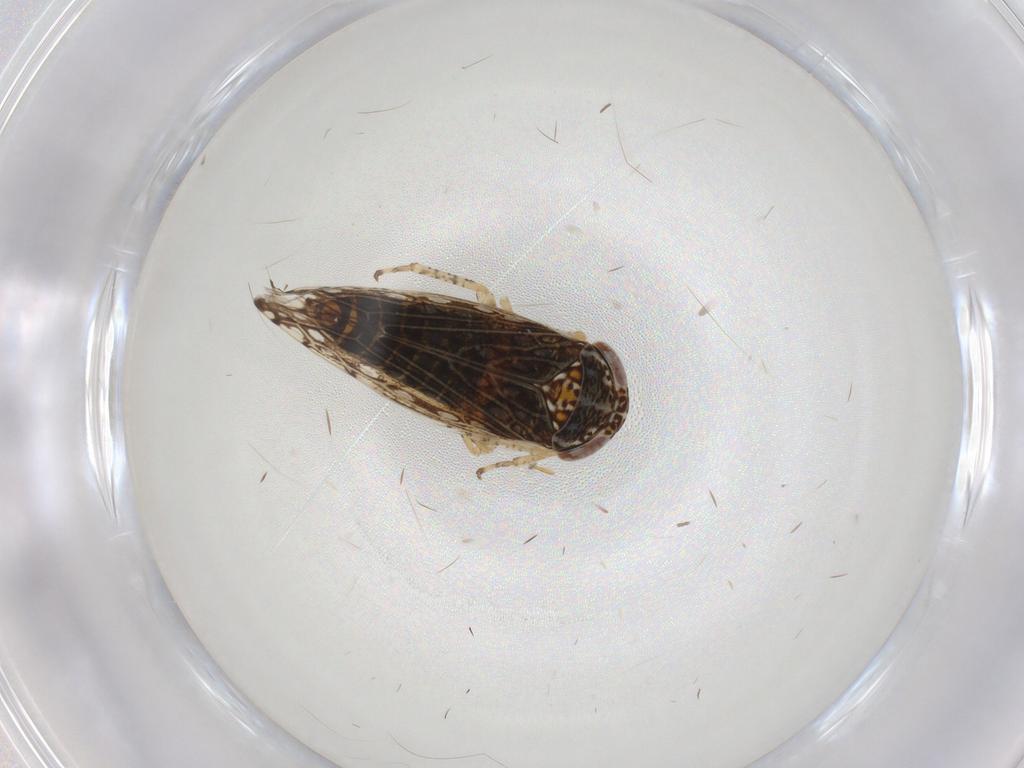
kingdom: Animalia
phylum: Arthropoda
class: Insecta
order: Hemiptera
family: Cicadellidae
